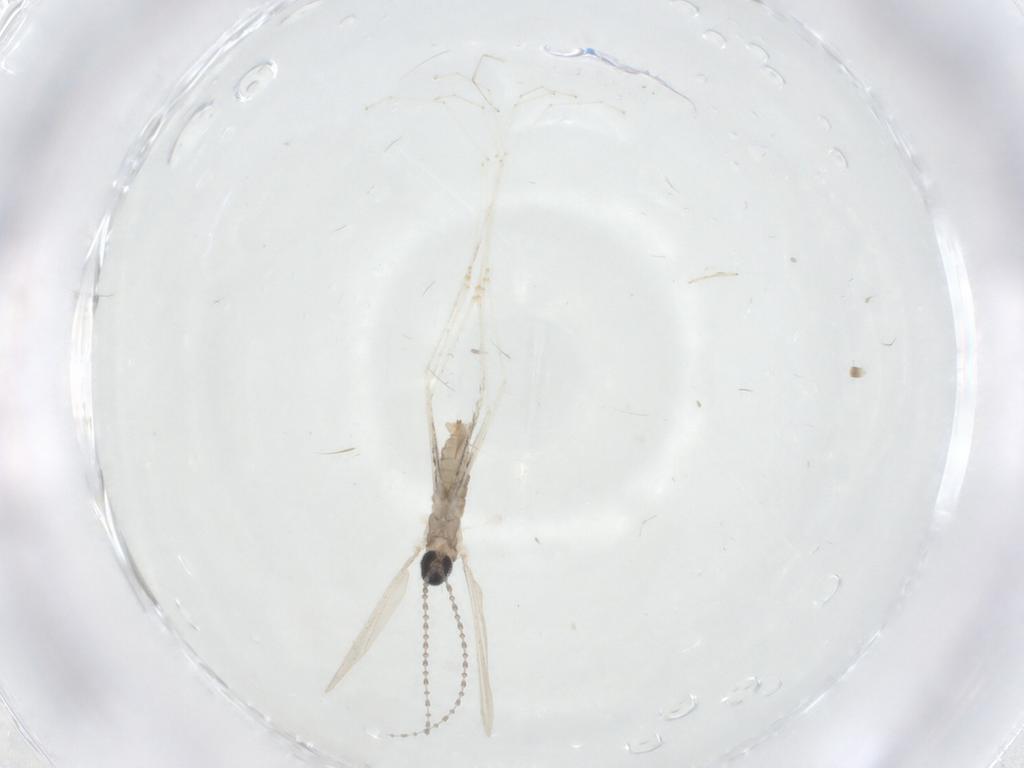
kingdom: Animalia
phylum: Arthropoda
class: Insecta
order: Diptera
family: Cecidomyiidae
